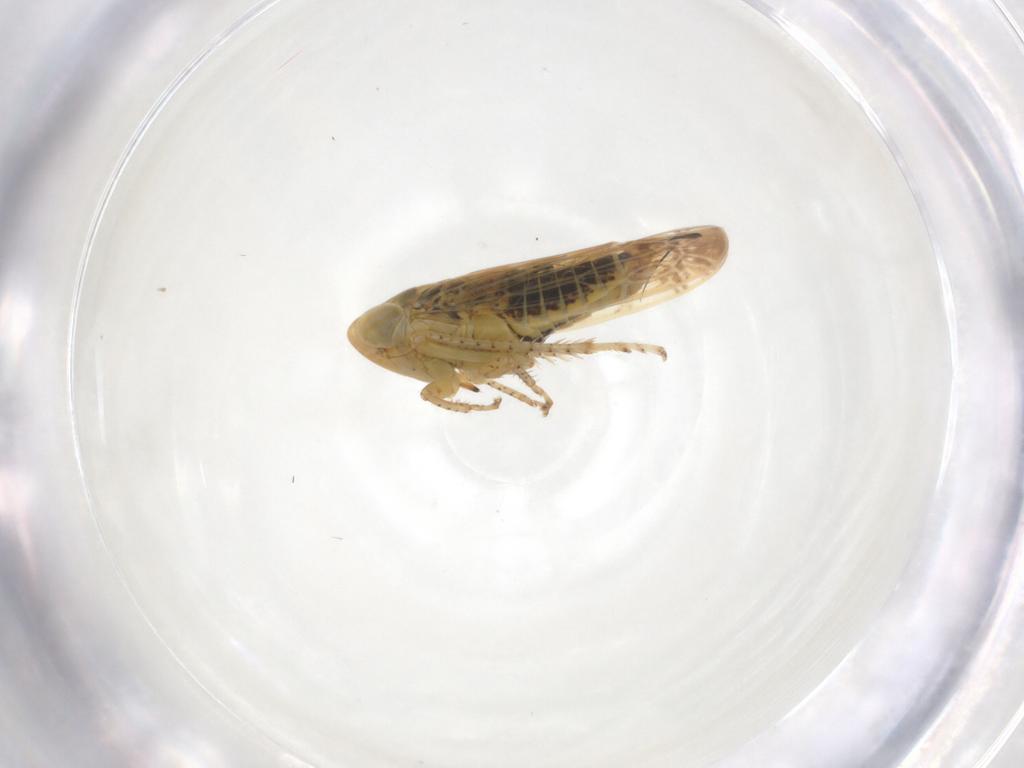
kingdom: Animalia
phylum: Arthropoda
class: Insecta
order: Hemiptera
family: Cicadellidae
